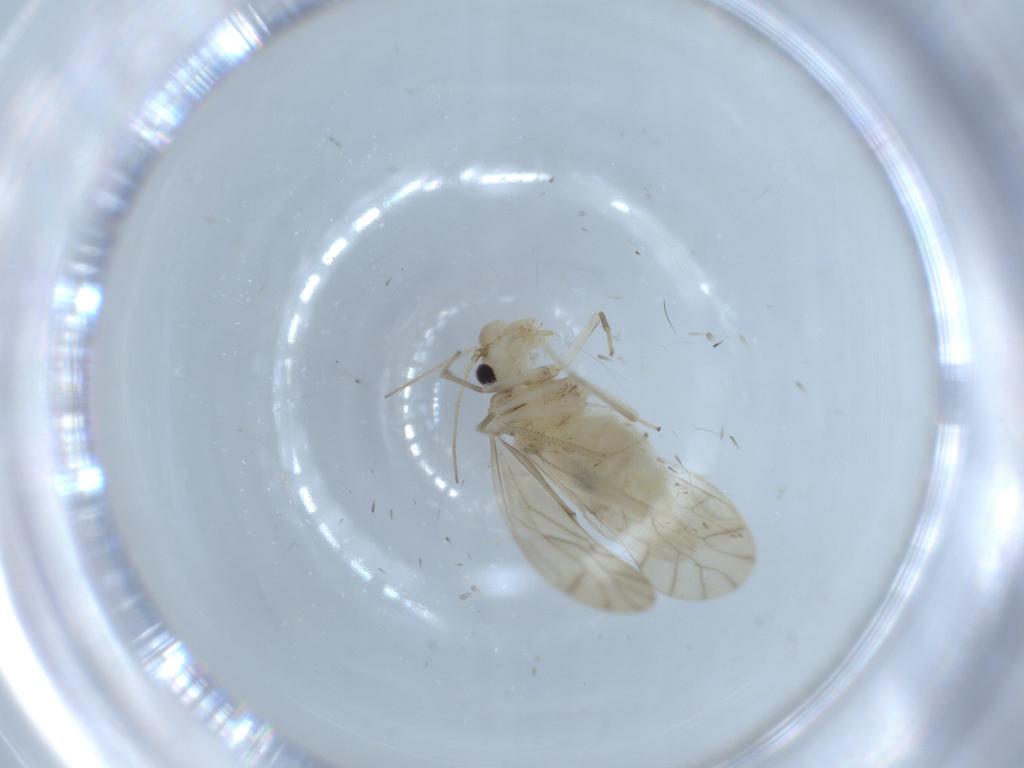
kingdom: Animalia
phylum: Arthropoda
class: Insecta
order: Psocodea
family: Caeciliusidae
